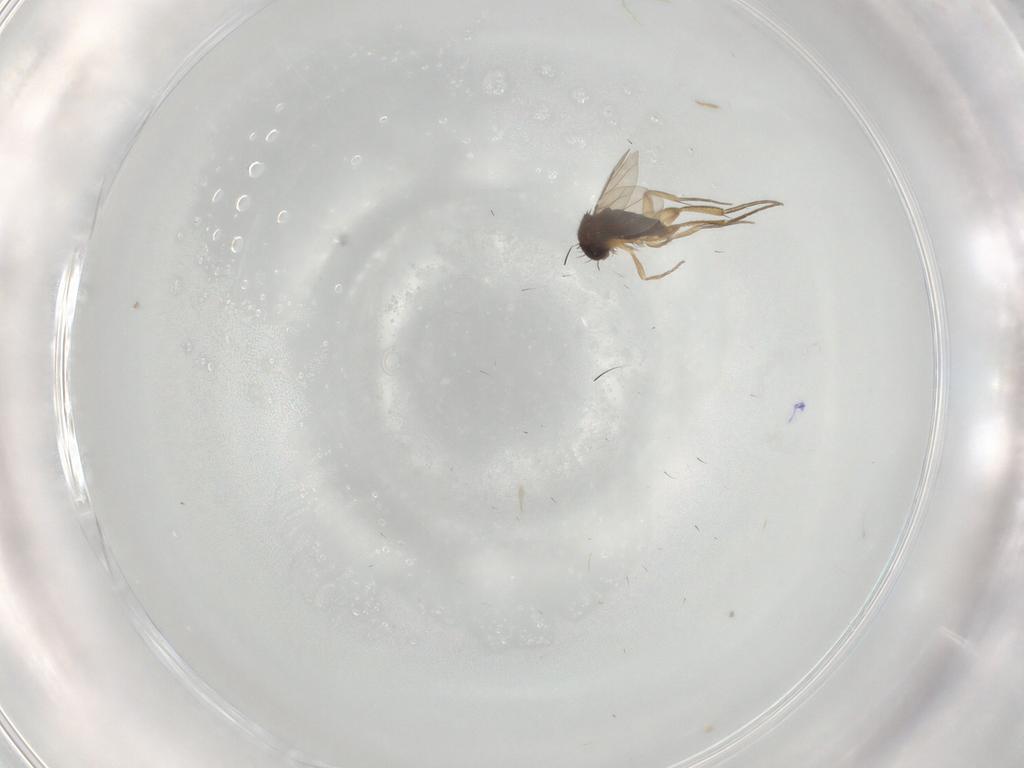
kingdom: Animalia
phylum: Arthropoda
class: Insecta
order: Diptera
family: Phoridae
